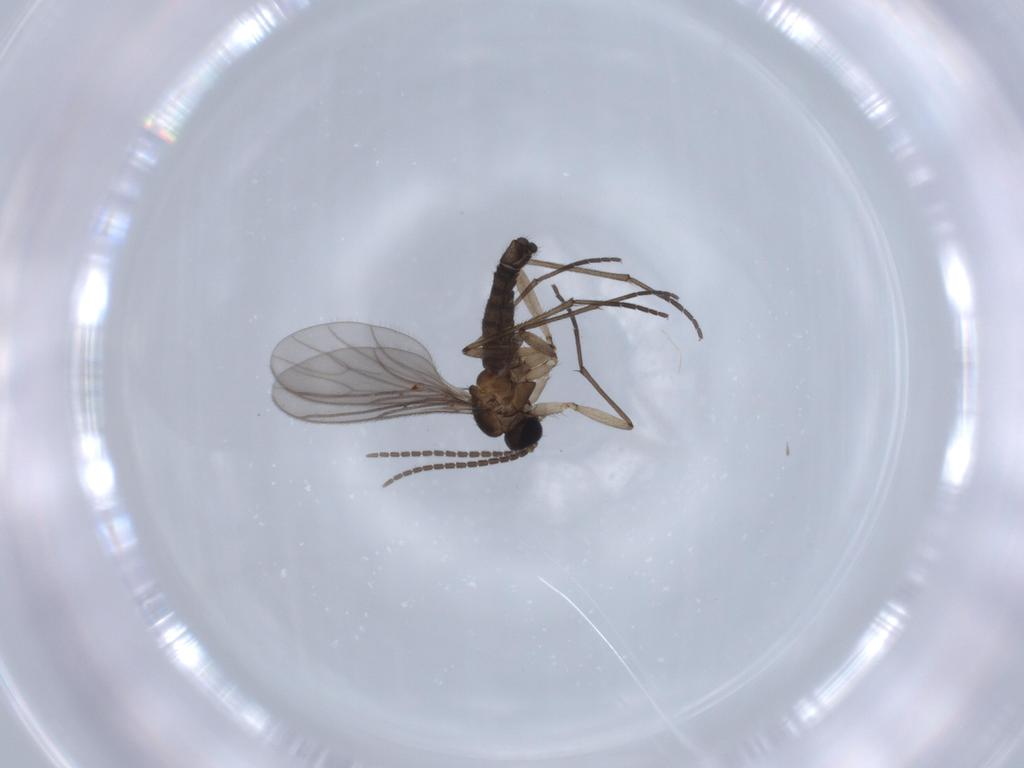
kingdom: Animalia
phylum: Arthropoda
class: Insecta
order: Diptera
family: Sciaridae
